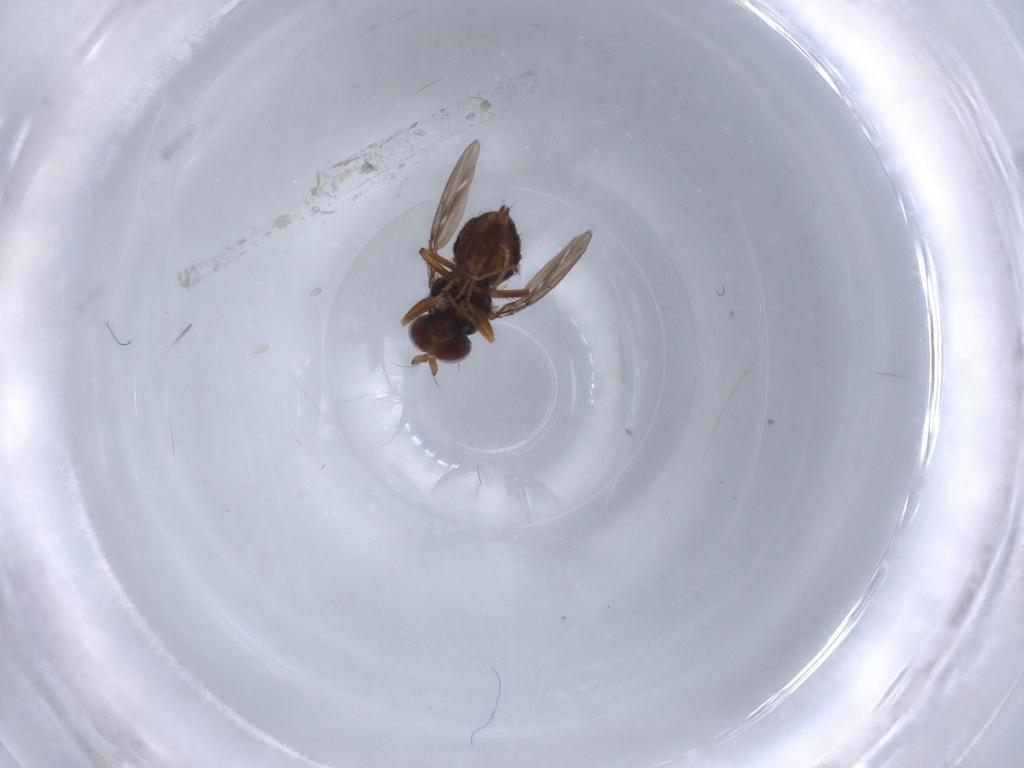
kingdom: Animalia
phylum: Arthropoda
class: Insecta
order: Diptera
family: Ephydridae
